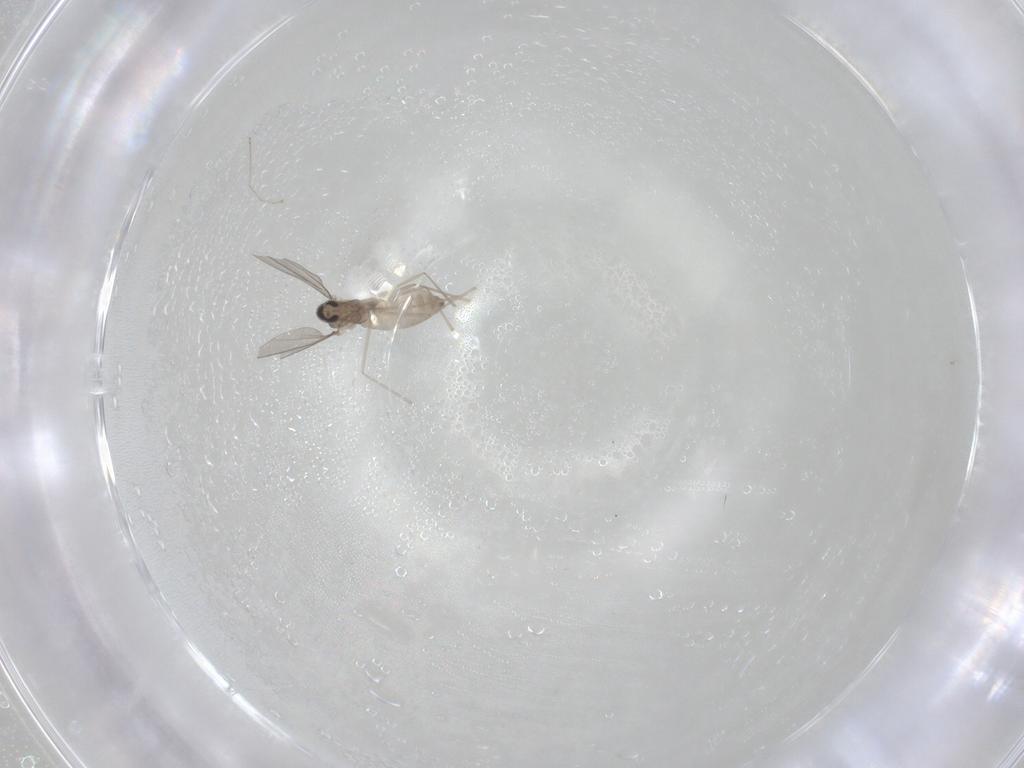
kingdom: Animalia
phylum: Arthropoda
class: Insecta
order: Diptera
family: Cecidomyiidae
